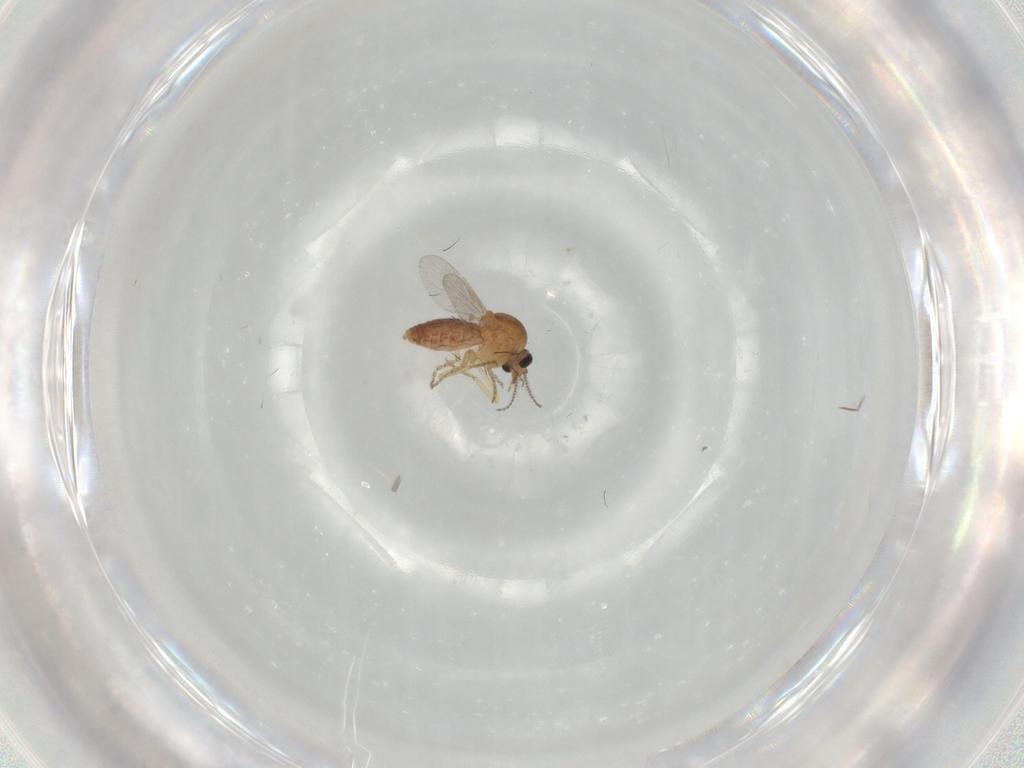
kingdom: Animalia
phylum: Arthropoda
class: Insecta
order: Diptera
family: Ceratopogonidae
